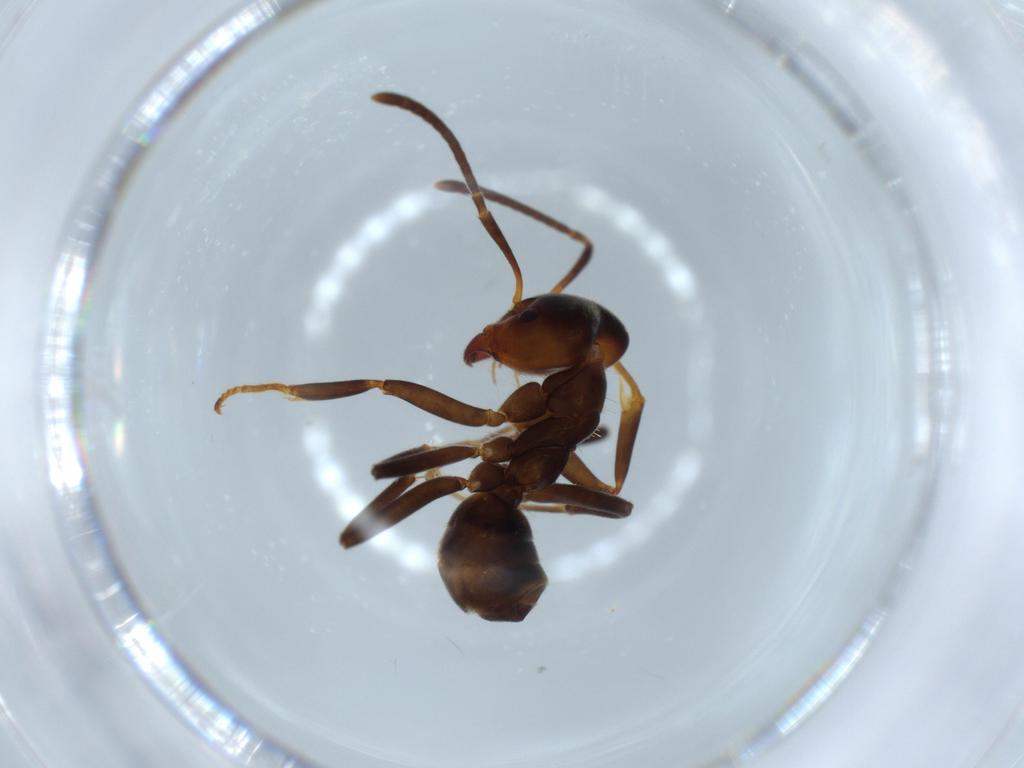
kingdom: Animalia
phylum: Arthropoda
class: Insecta
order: Hymenoptera
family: Formicidae
